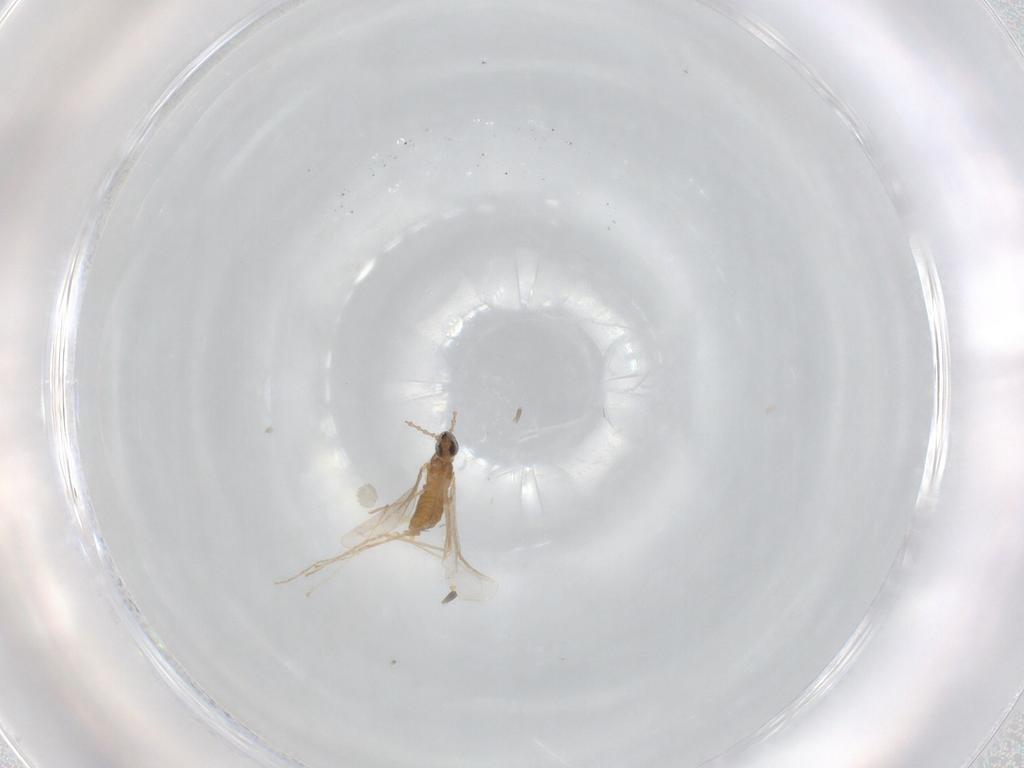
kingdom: Animalia
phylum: Arthropoda
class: Insecta
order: Diptera
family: Cecidomyiidae
